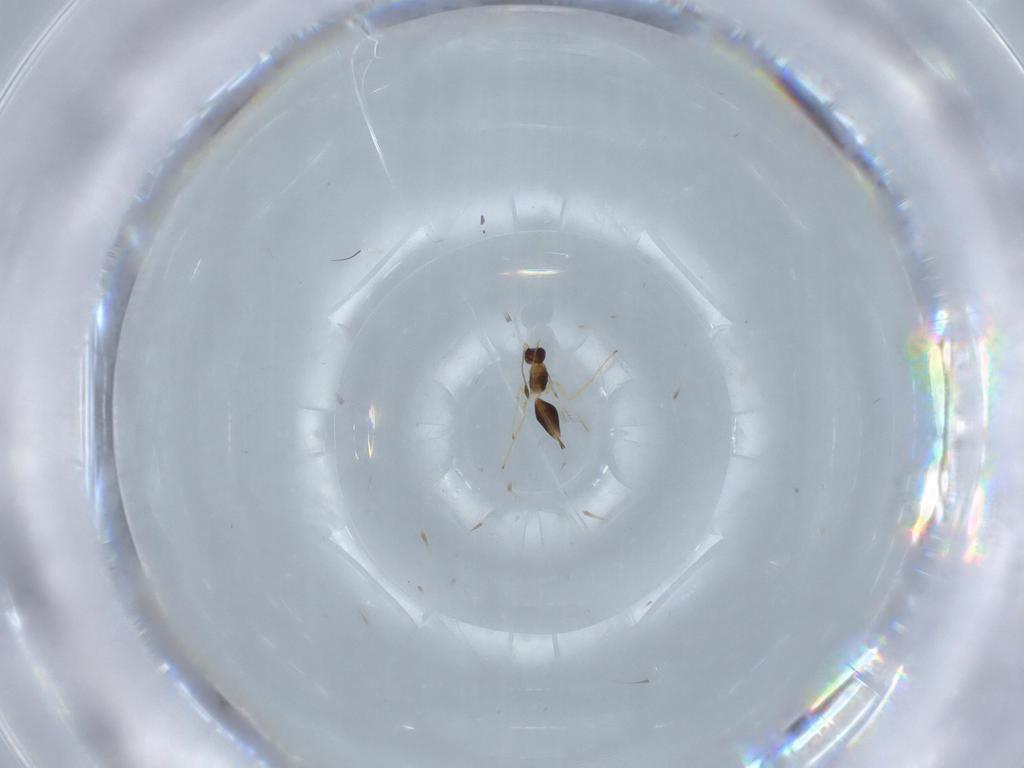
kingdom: Animalia
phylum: Arthropoda
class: Insecta
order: Hymenoptera
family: Mymaridae
